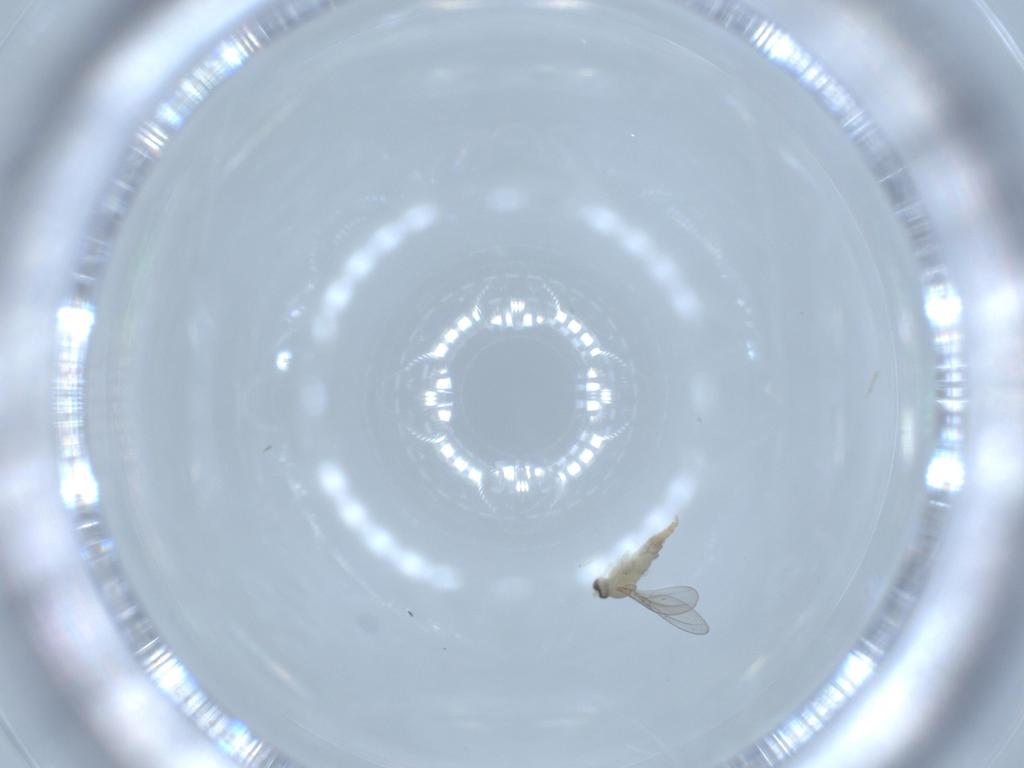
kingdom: Animalia
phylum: Arthropoda
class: Insecta
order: Diptera
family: Cecidomyiidae
